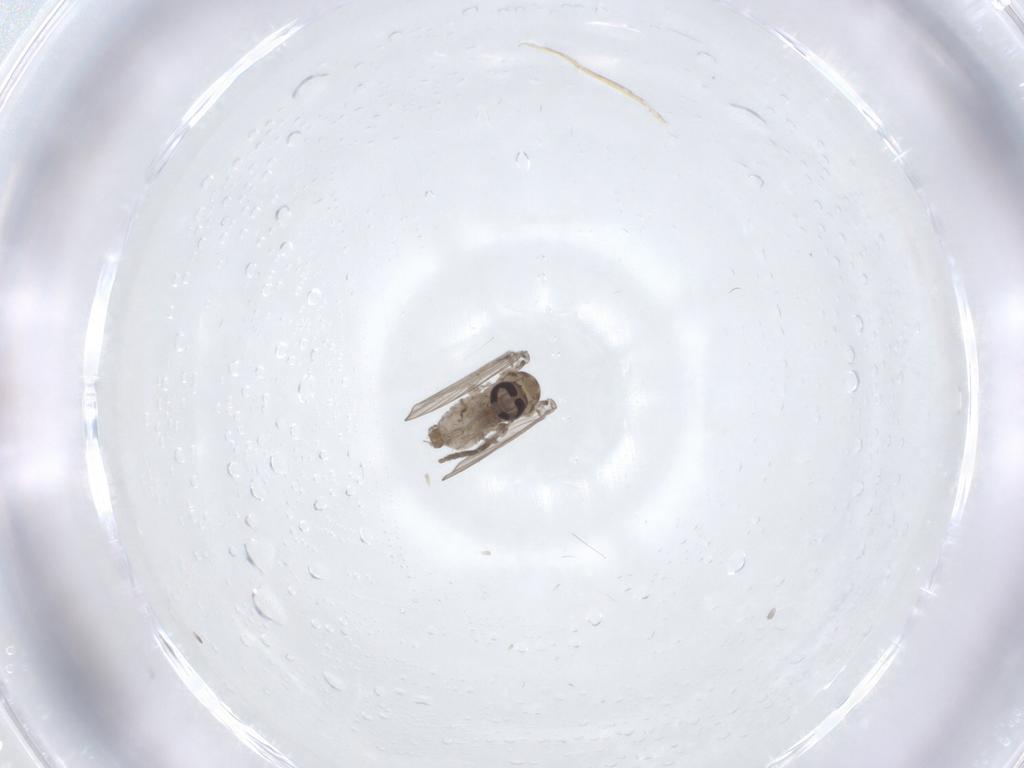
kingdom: Animalia
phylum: Arthropoda
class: Insecta
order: Diptera
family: Psychodidae
